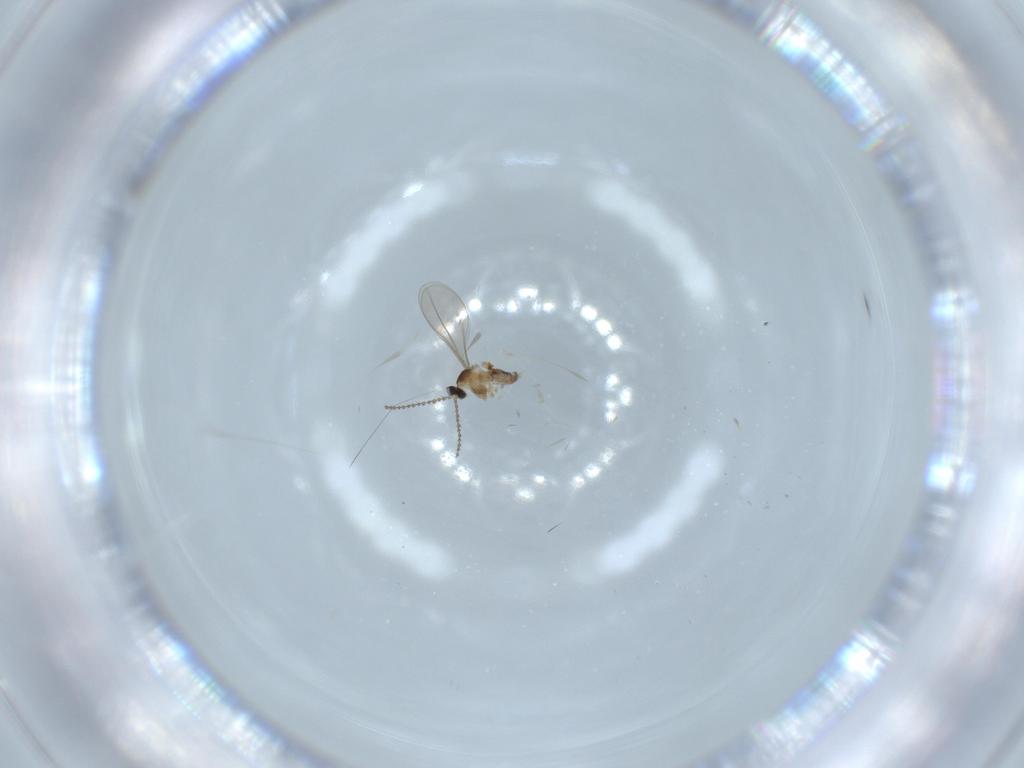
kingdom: Animalia
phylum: Arthropoda
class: Insecta
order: Diptera
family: Cecidomyiidae
